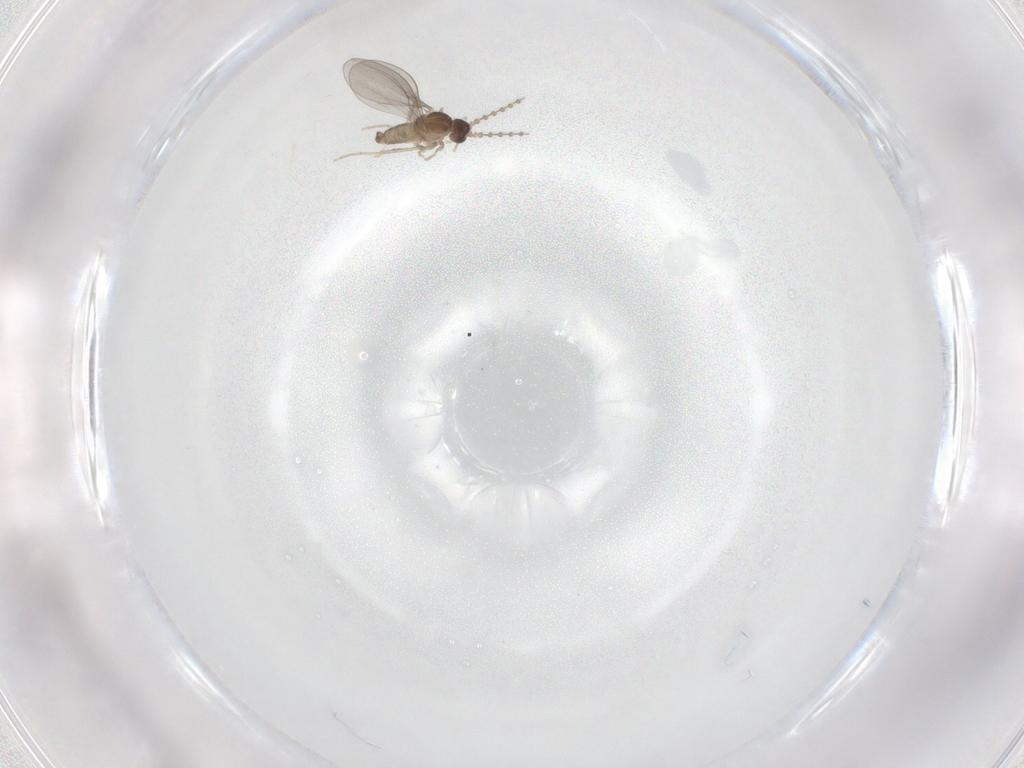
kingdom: Animalia
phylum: Arthropoda
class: Insecta
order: Diptera
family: Cecidomyiidae
